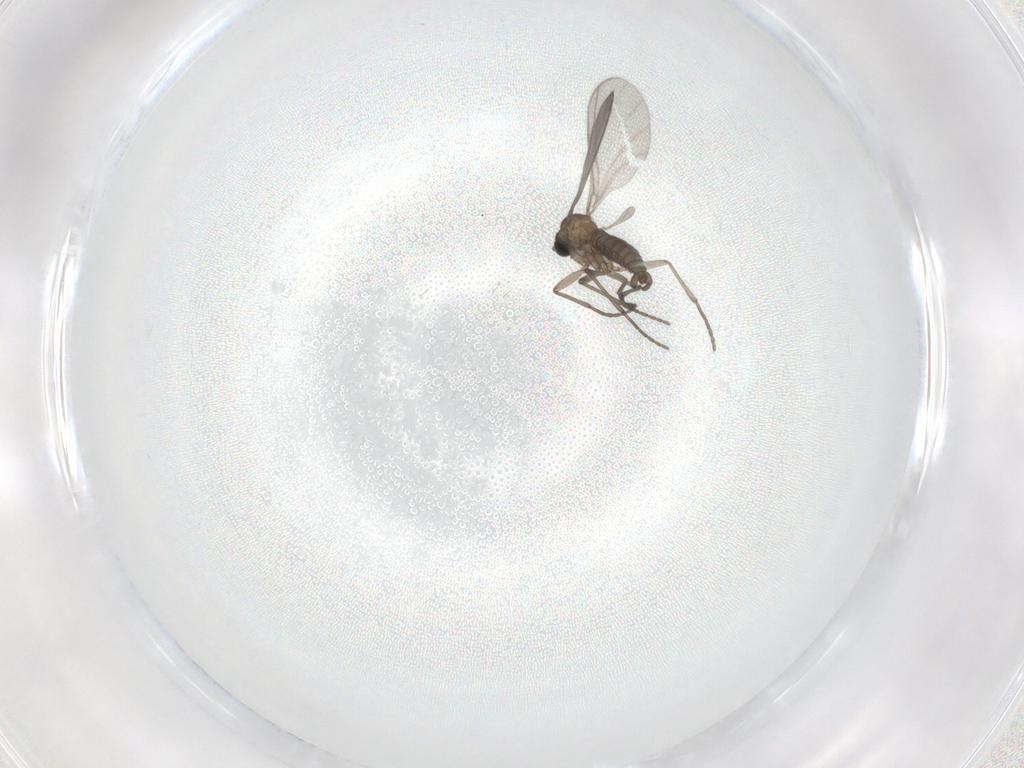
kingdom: Animalia
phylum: Arthropoda
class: Insecta
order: Diptera
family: Sciaridae
